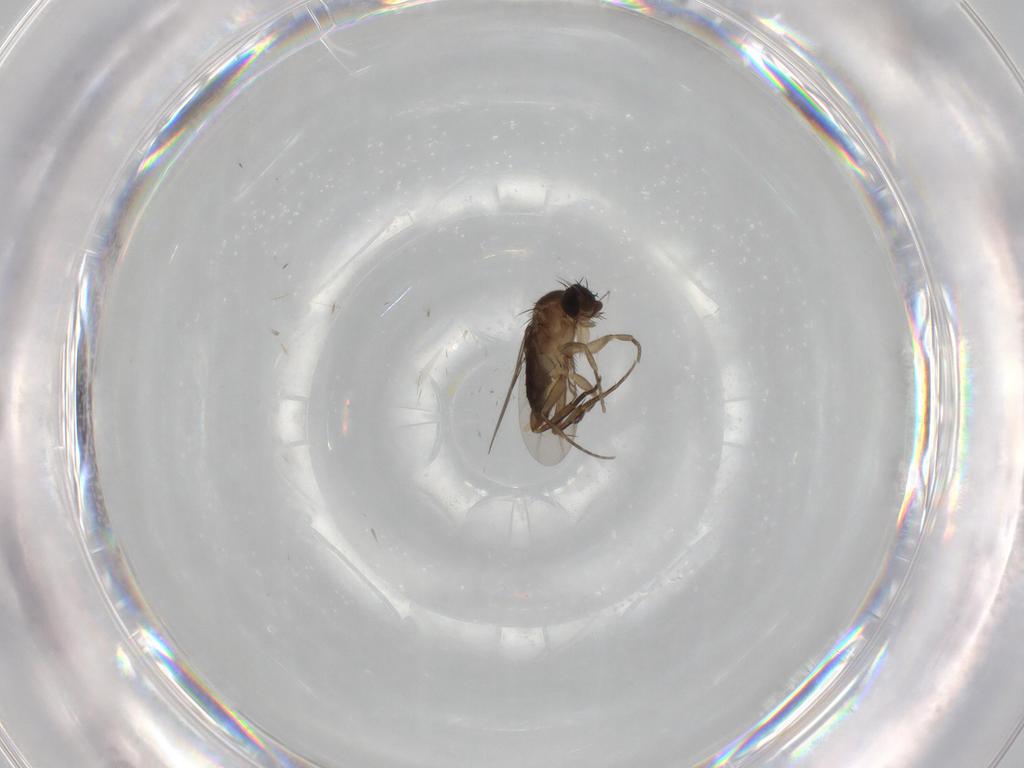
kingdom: Animalia
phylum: Arthropoda
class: Insecta
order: Diptera
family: Phoridae
